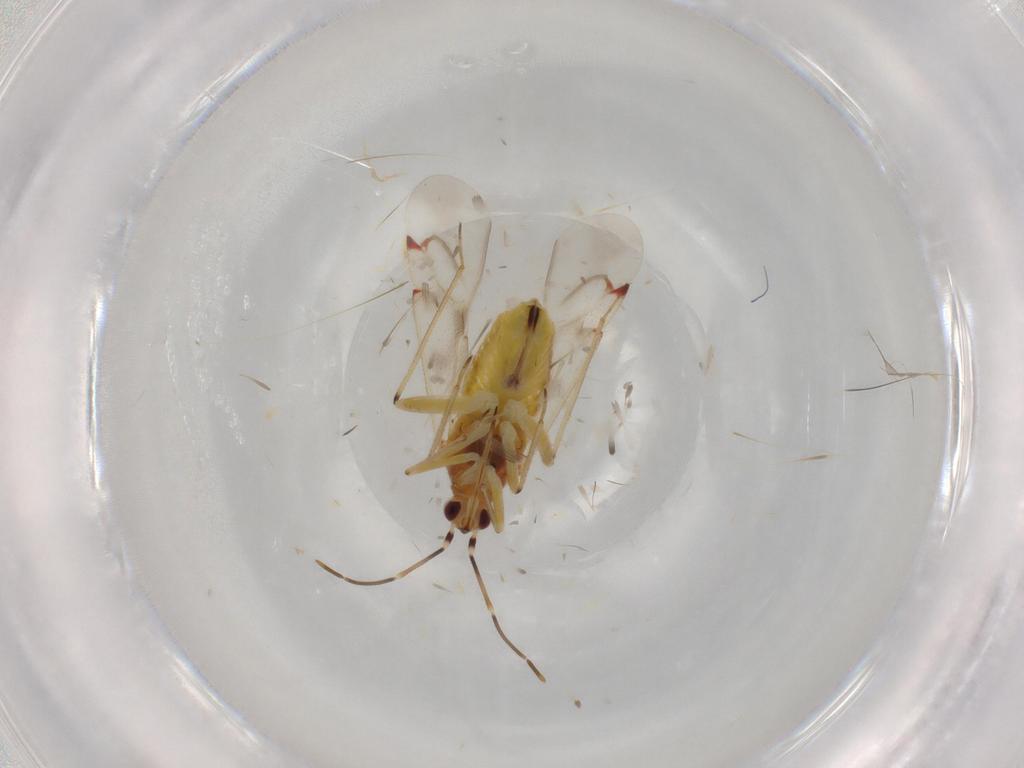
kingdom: Animalia
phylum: Arthropoda
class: Insecta
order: Hemiptera
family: Miridae
